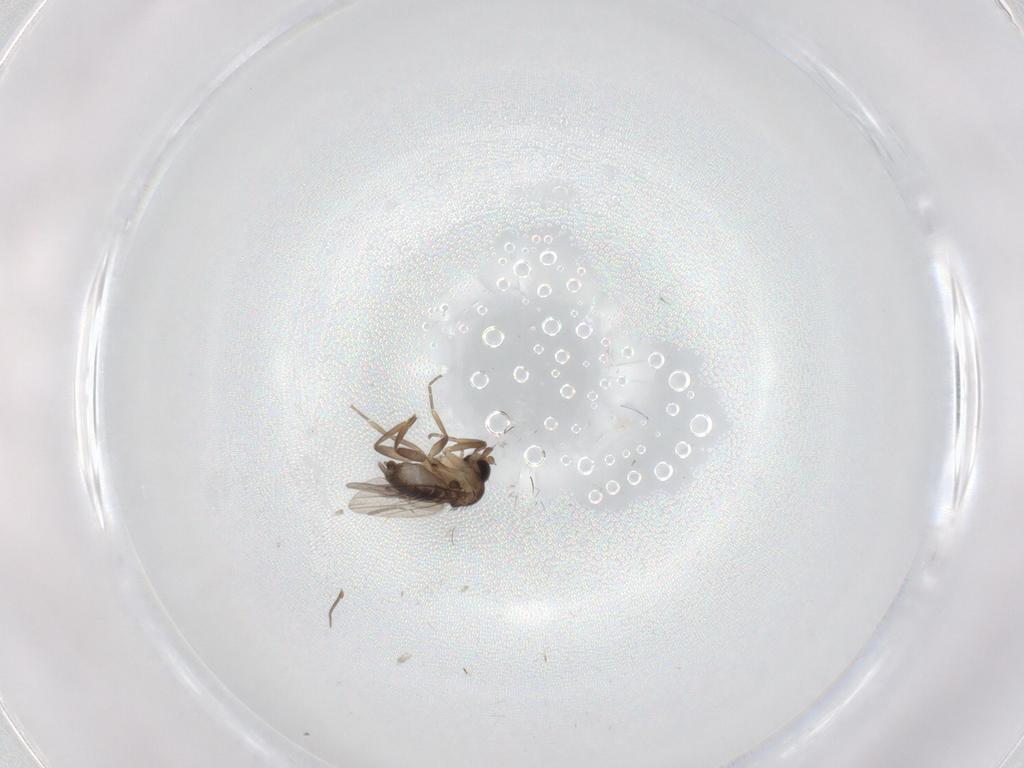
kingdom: Animalia
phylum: Arthropoda
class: Insecta
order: Diptera
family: Phoridae
